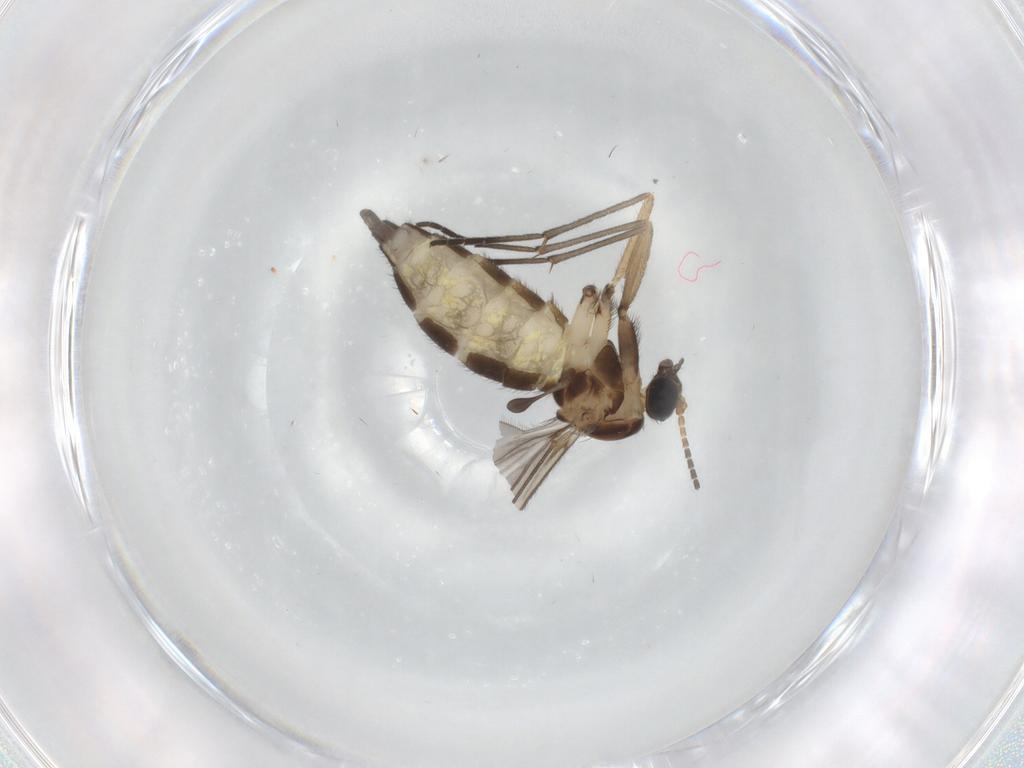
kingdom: Animalia
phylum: Arthropoda
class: Insecta
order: Diptera
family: Sciaridae
